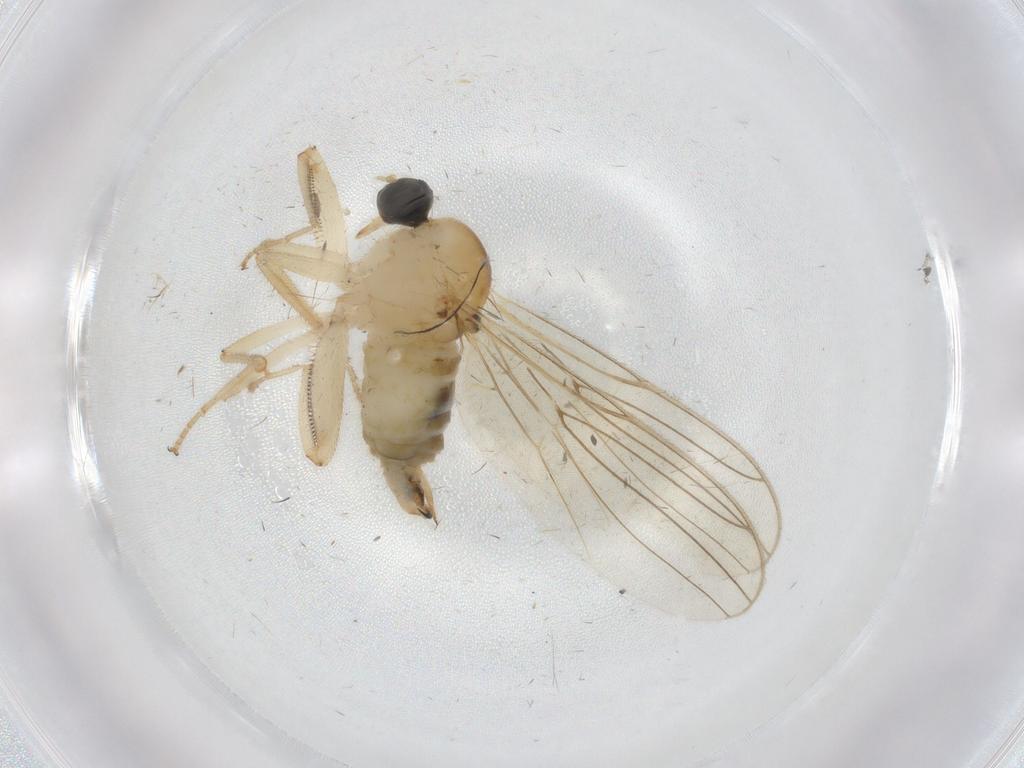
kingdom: Animalia
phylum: Arthropoda
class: Insecta
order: Diptera
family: Hybotidae
